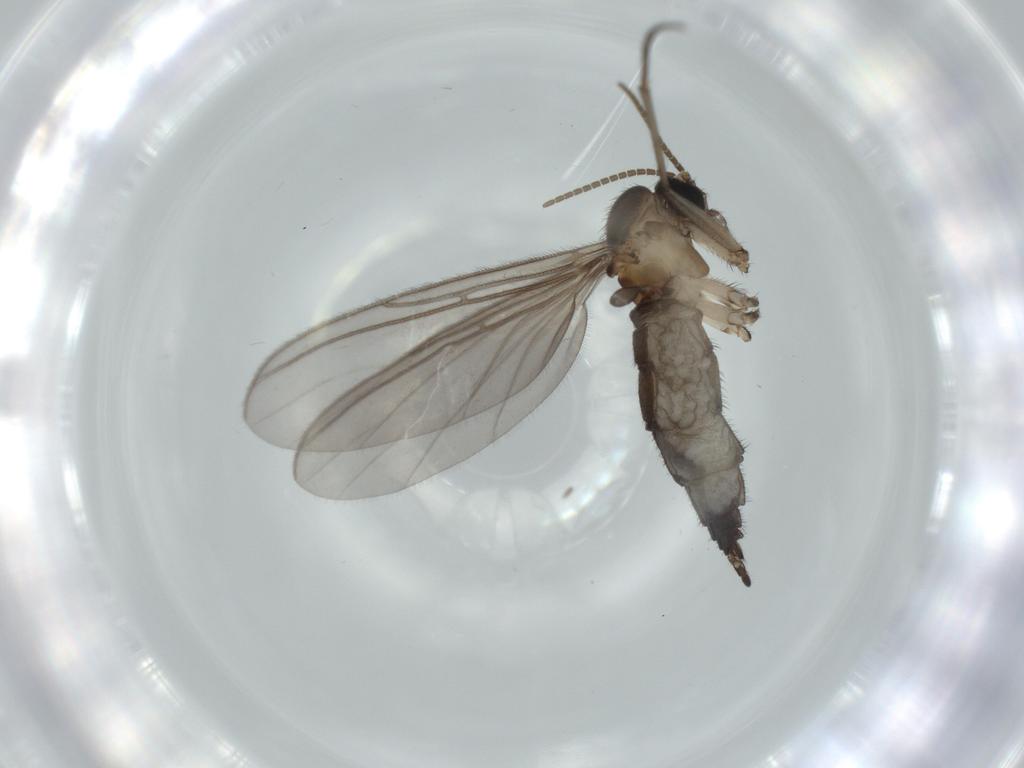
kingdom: Animalia
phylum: Arthropoda
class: Insecta
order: Diptera
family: Sciaridae
